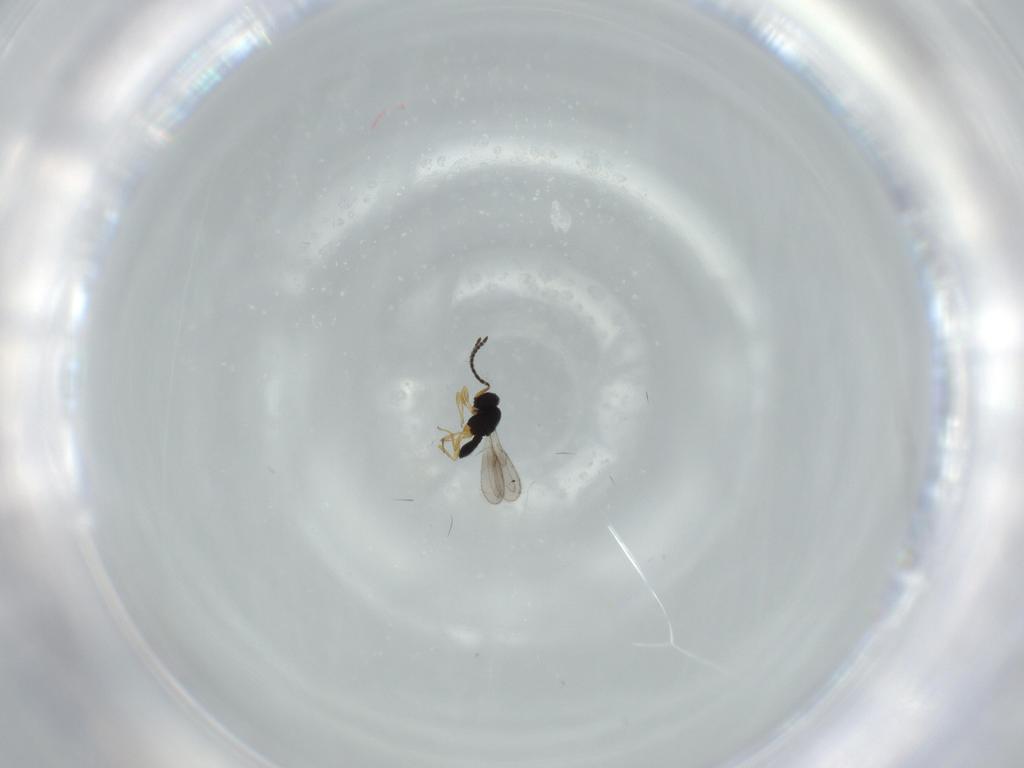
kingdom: Animalia
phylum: Arthropoda
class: Insecta
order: Hymenoptera
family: Scelionidae
